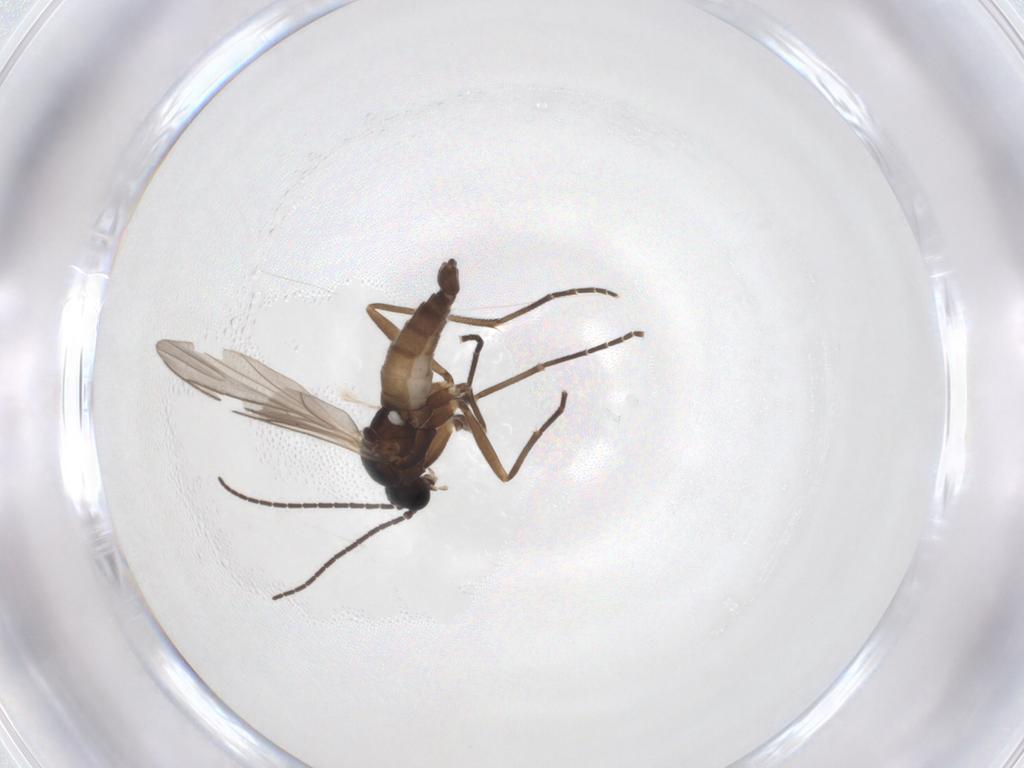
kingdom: Animalia
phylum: Arthropoda
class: Insecta
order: Diptera
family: Sciaridae
